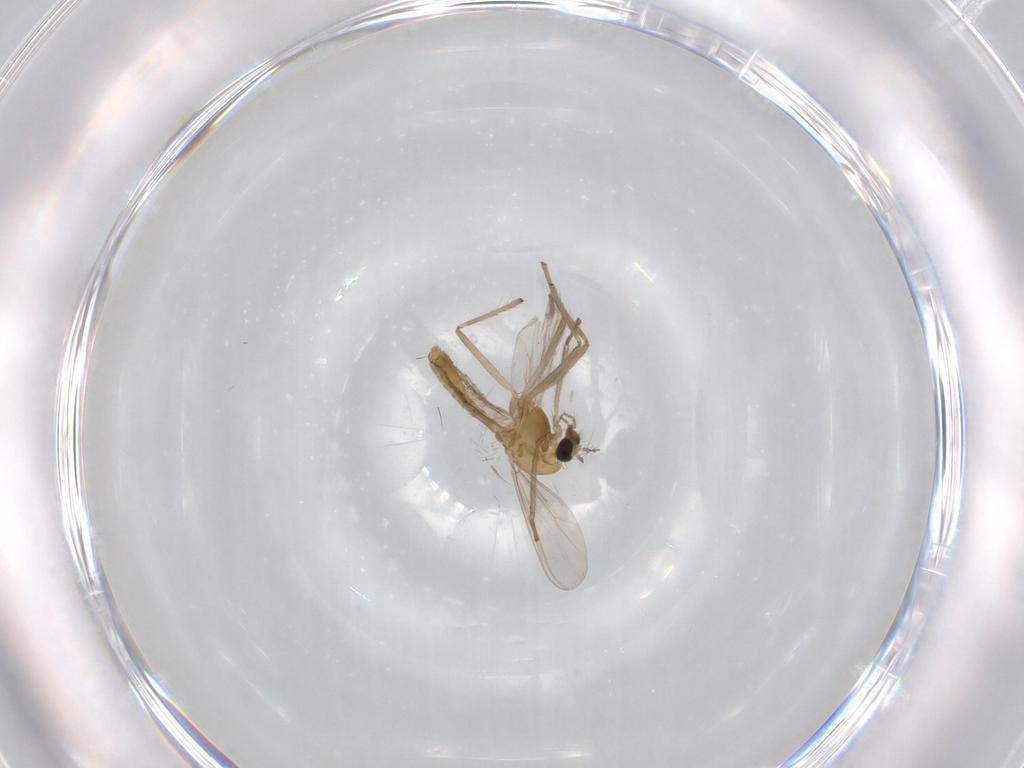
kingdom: Animalia
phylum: Arthropoda
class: Insecta
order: Diptera
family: Chironomidae
